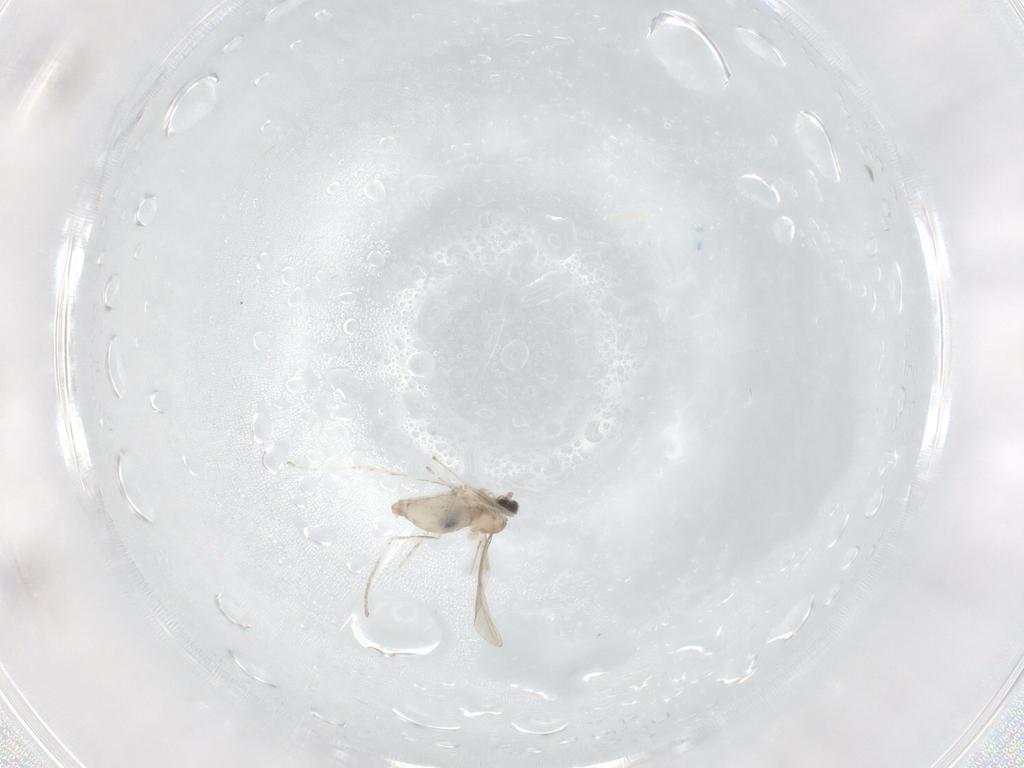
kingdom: Animalia
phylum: Arthropoda
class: Insecta
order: Diptera
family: Cecidomyiidae
